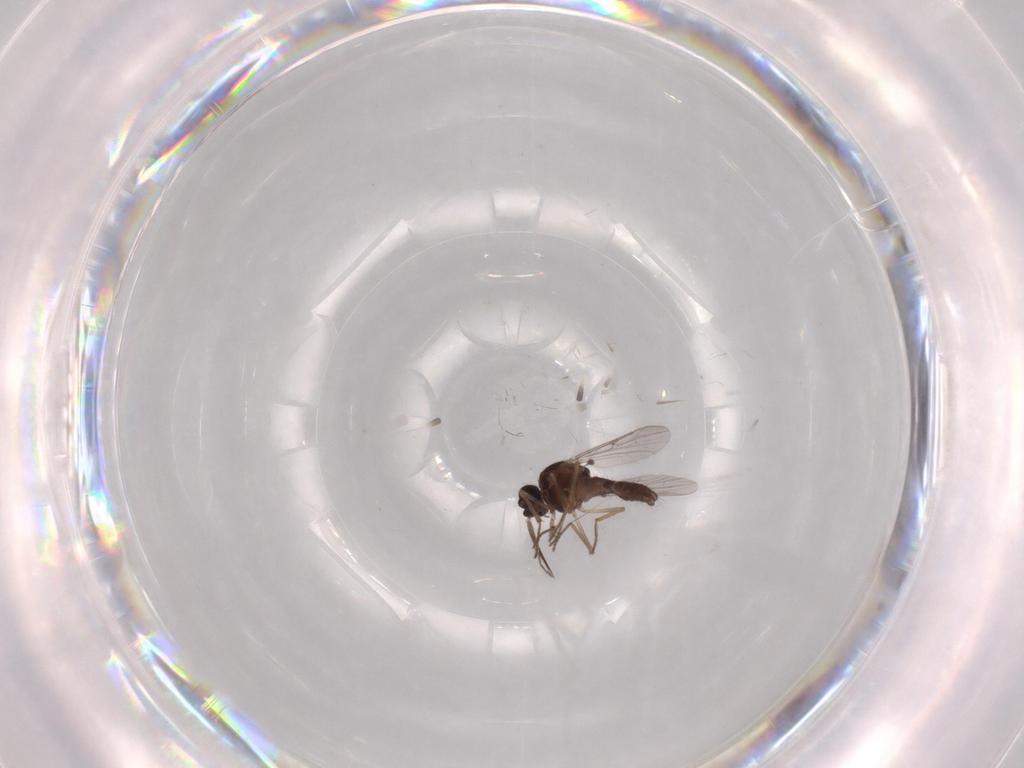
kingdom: Animalia
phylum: Arthropoda
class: Insecta
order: Diptera
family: Ceratopogonidae
